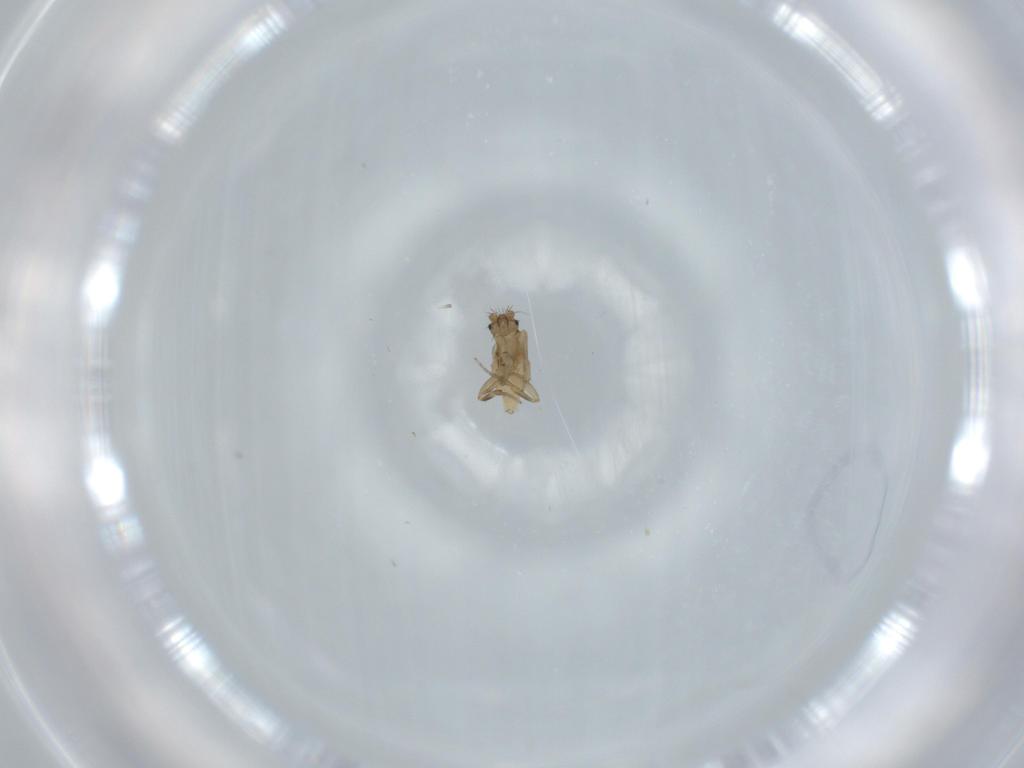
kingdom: Animalia
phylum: Arthropoda
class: Insecta
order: Diptera
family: Phoridae
